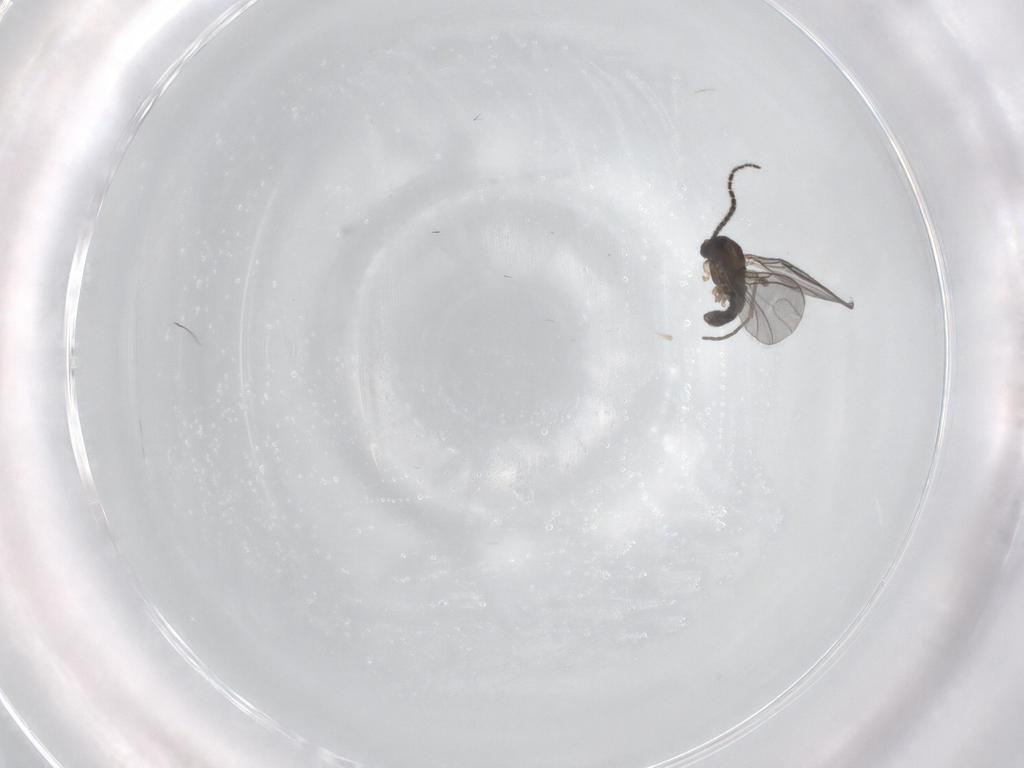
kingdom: Animalia
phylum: Arthropoda
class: Insecta
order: Diptera
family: Sciaridae
